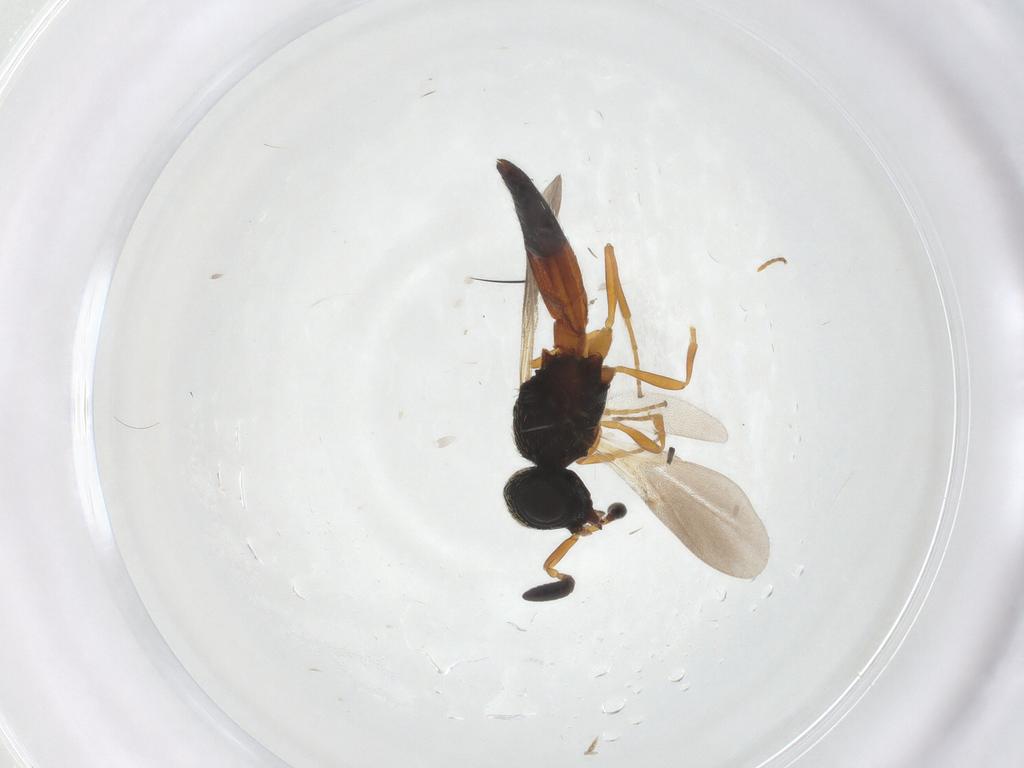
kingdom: Animalia
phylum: Arthropoda
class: Insecta
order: Hymenoptera
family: Scelionidae
